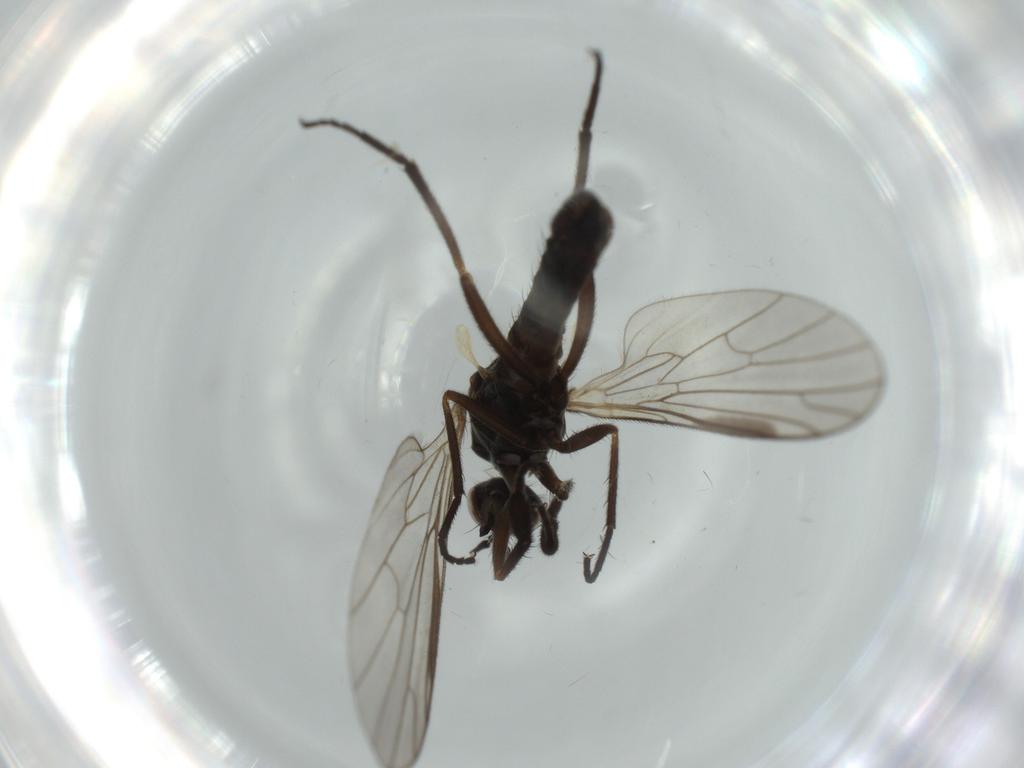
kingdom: Animalia
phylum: Arthropoda
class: Insecta
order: Diptera
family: Empididae
